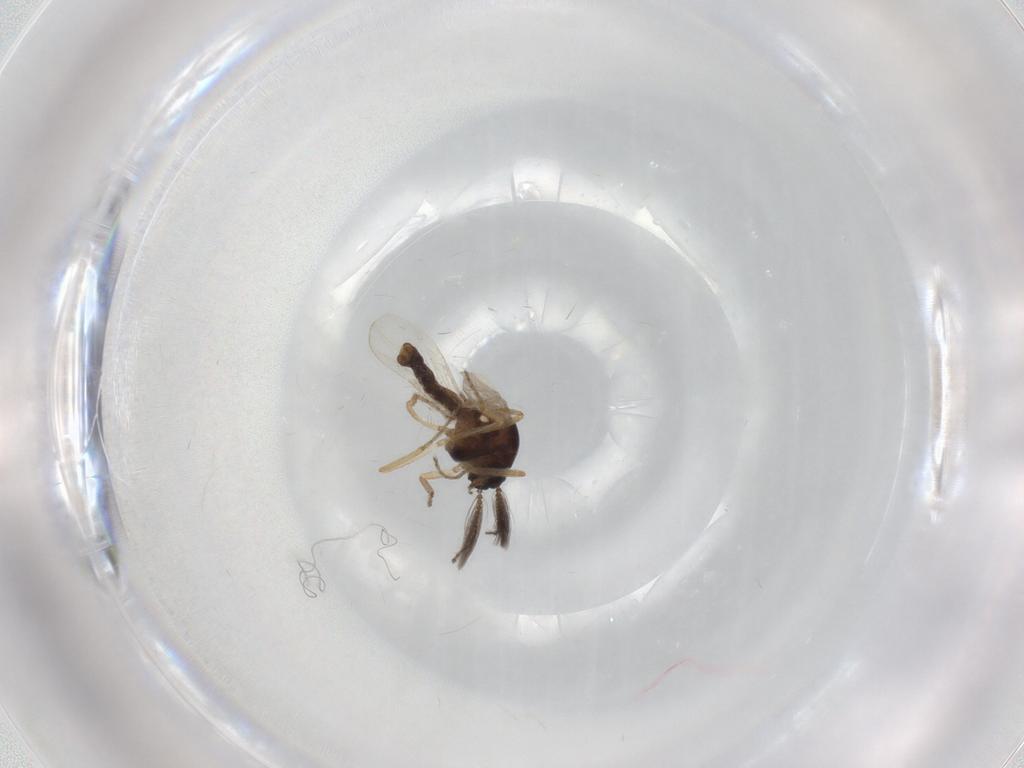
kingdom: Animalia
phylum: Arthropoda
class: Insecta
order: Diptera
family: Ceratopogonidae
